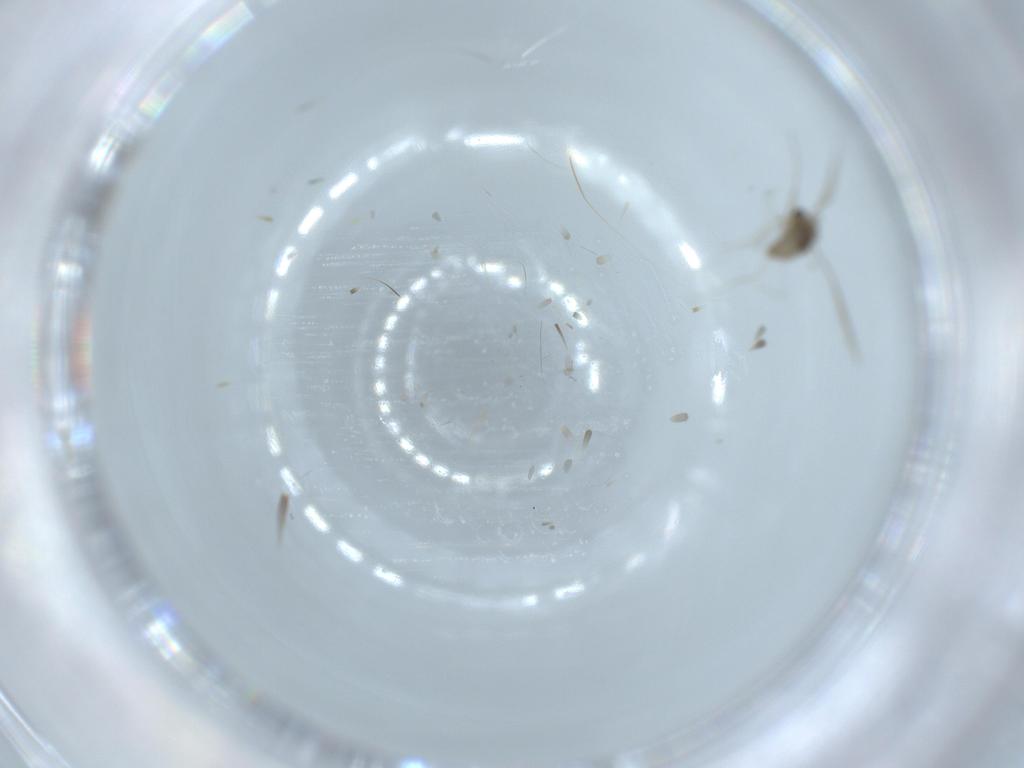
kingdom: Animalia
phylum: Arthropoda
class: Insecta
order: Diptera
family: Cecidomyiidae
